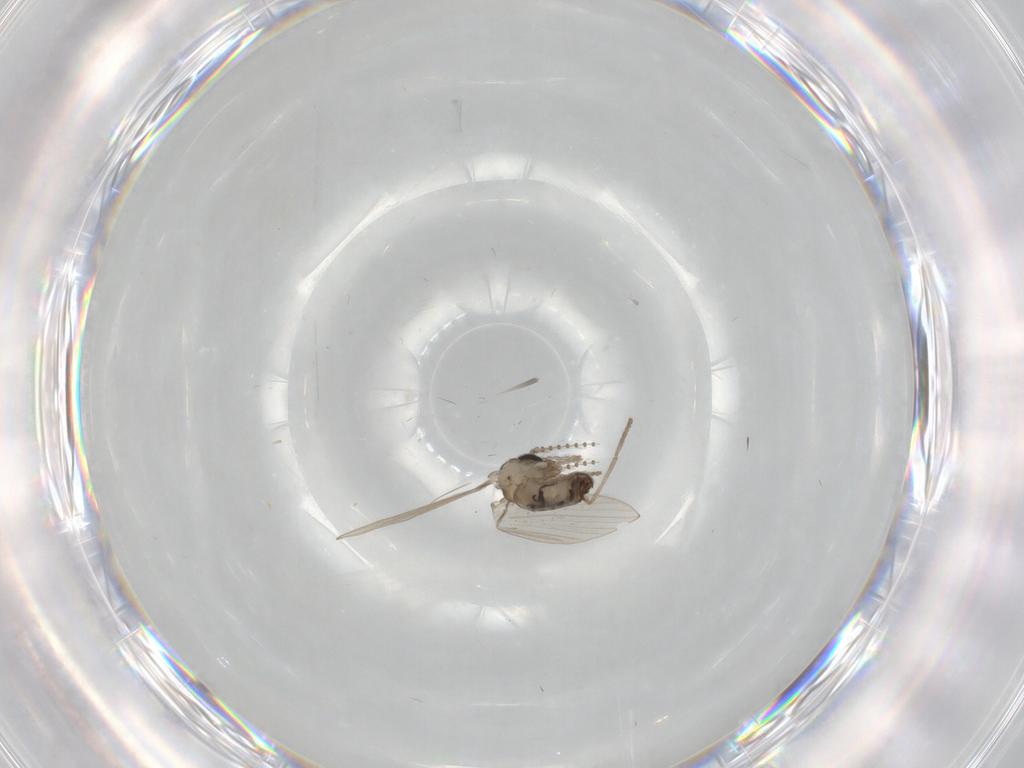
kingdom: Animalia
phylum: Arthropoda
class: Insecta
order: Diptera
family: Psychodidae
